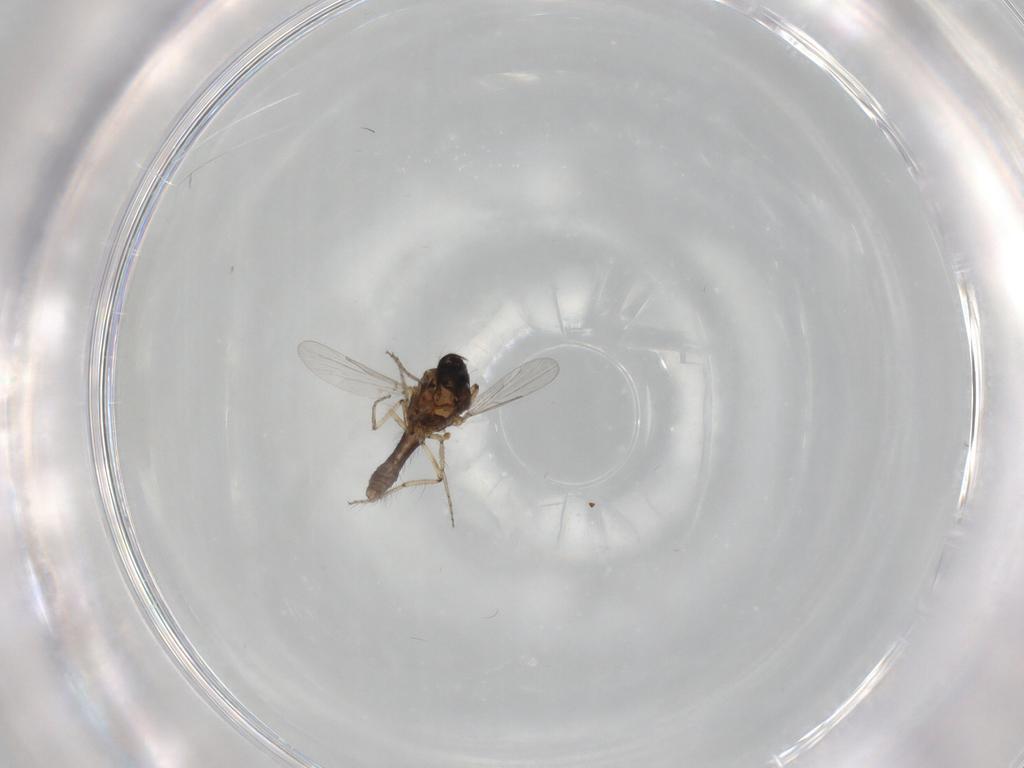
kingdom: Animalia
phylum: Arthropoda
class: Insecta
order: Diptera
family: Ceratopogonidae
